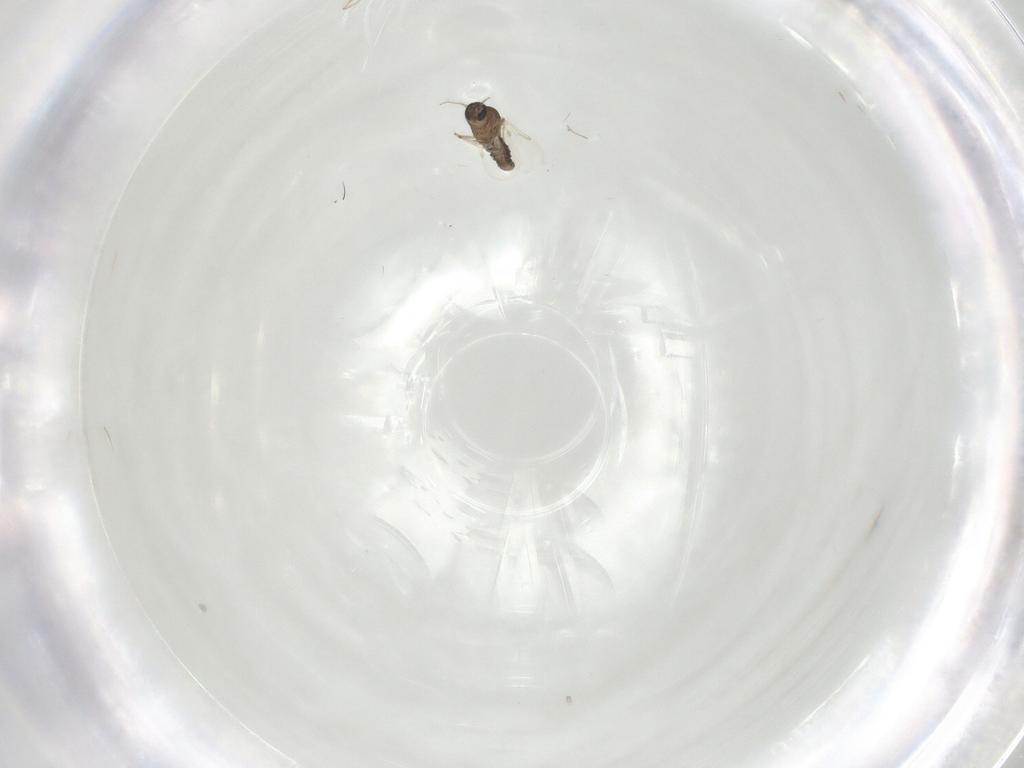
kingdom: Animalia
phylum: Arthropoda
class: Insecta
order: Diptera
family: Ceratopogonidae
